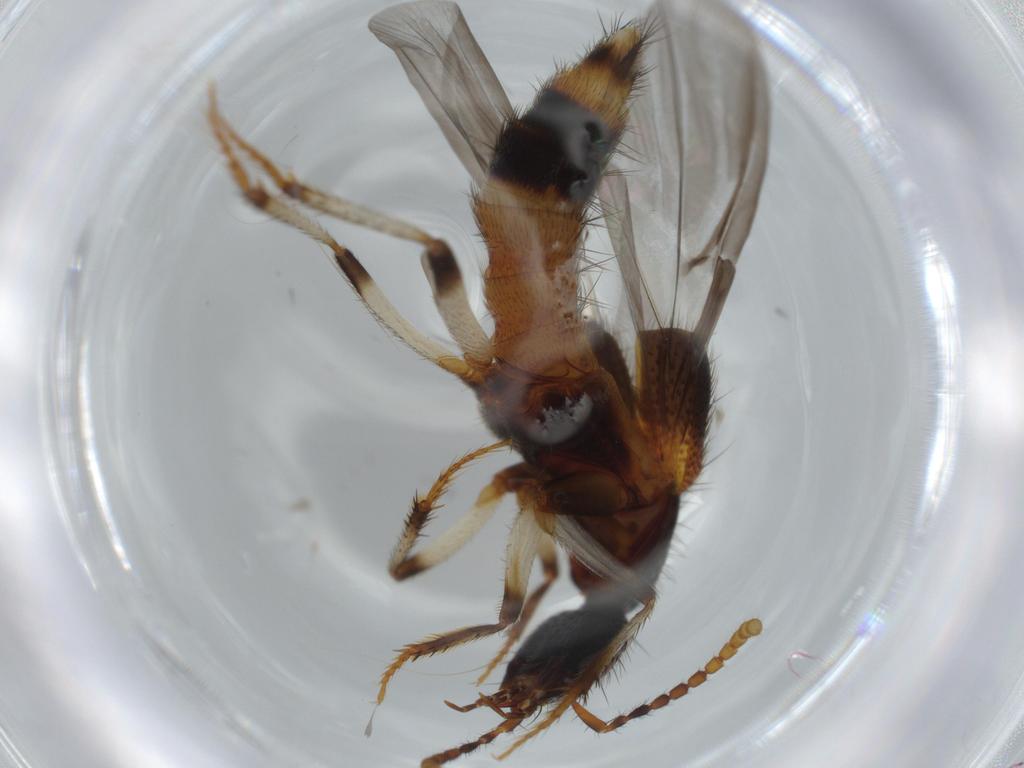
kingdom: Animalia
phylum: Arthropoda
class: Insecta
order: Coleoptera
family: Staphylinidae
